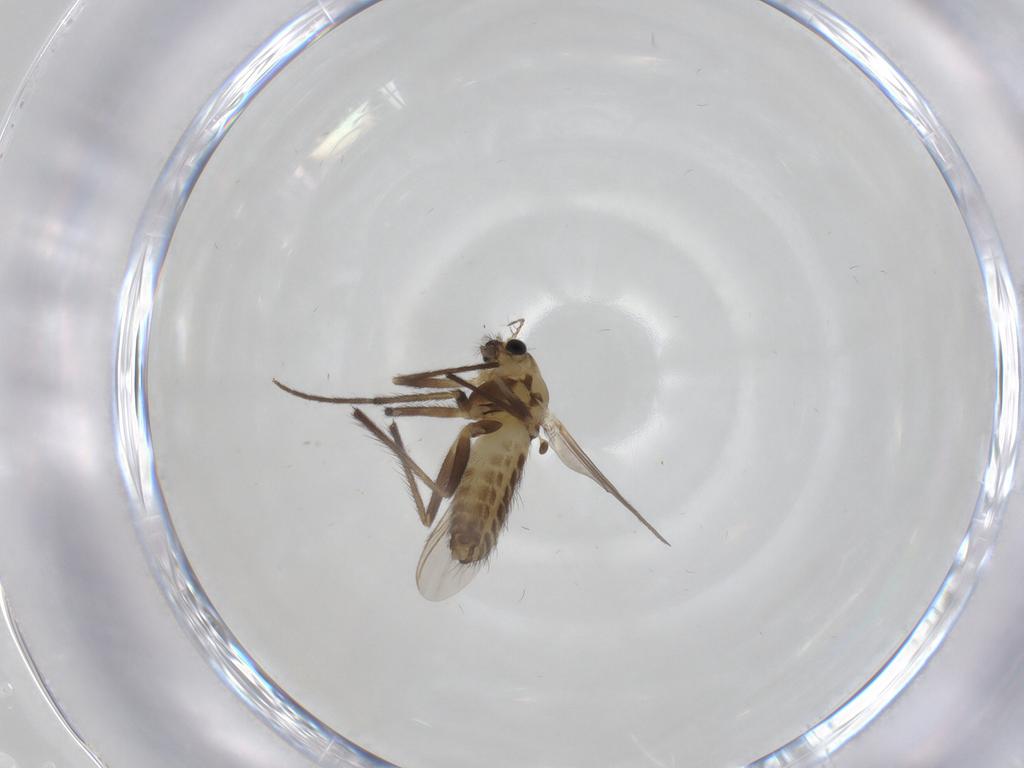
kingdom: Animalia
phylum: Arthropoda
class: Insecta
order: Diptera
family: Chironomidae
